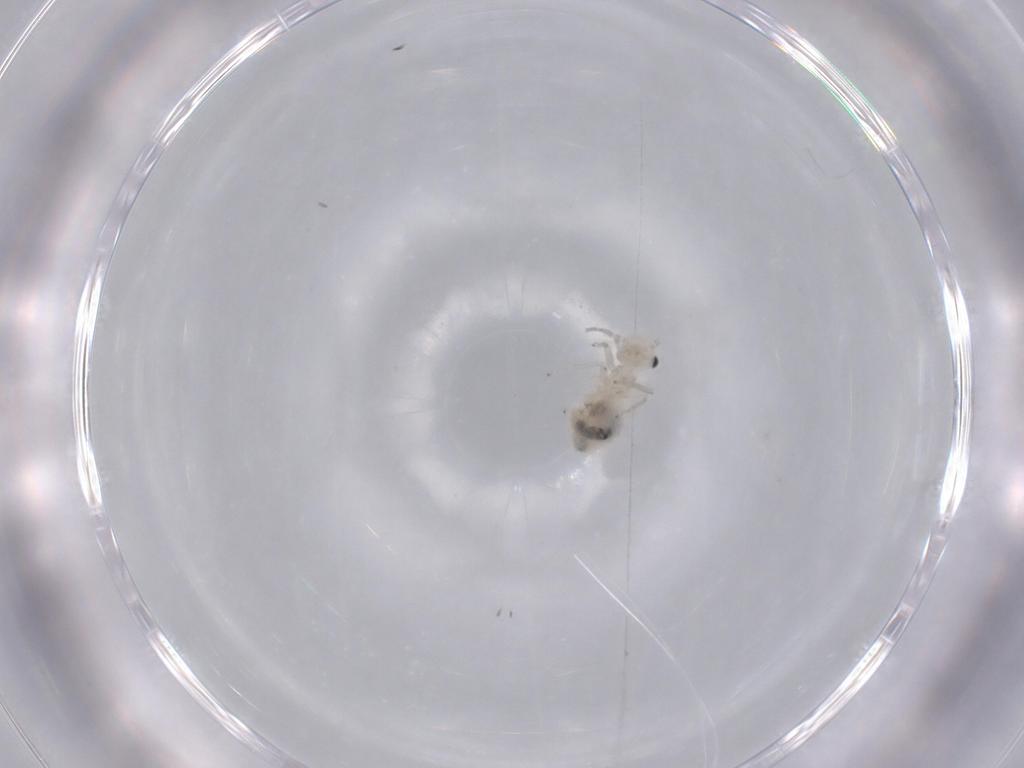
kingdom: Animalia
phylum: Arthropoda
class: Insecta
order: Psocodea
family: Caeciliusidae
